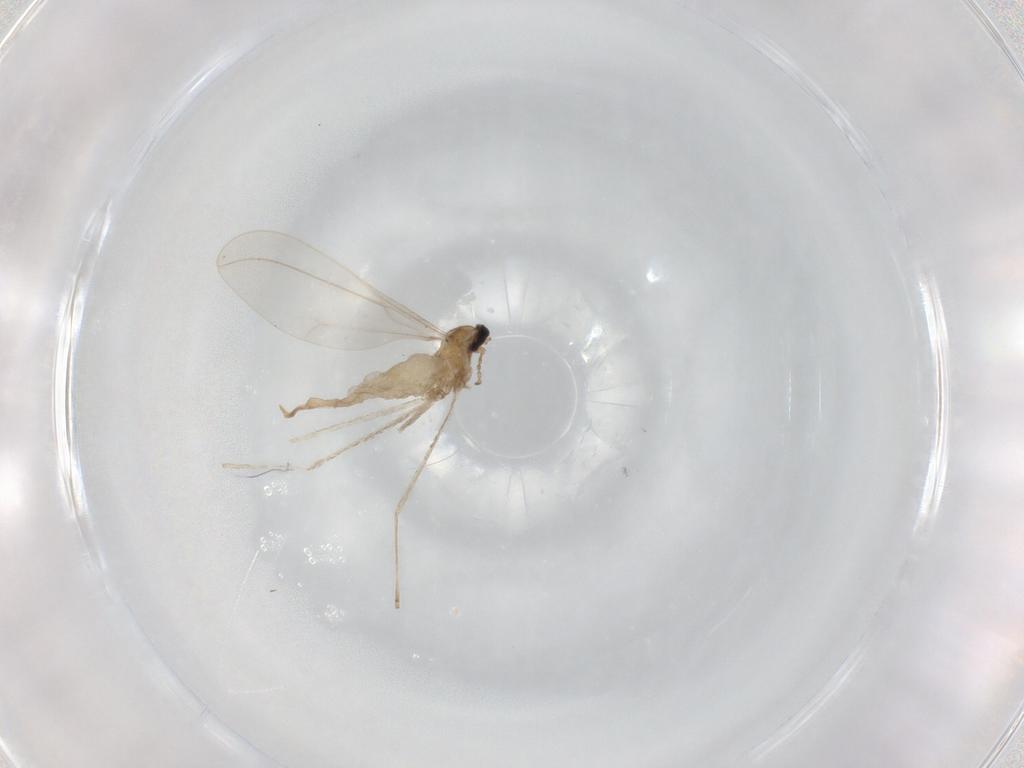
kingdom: Animalia
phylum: Arthropoda
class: Insecta
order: Diptera
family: Cecidomyiidae
